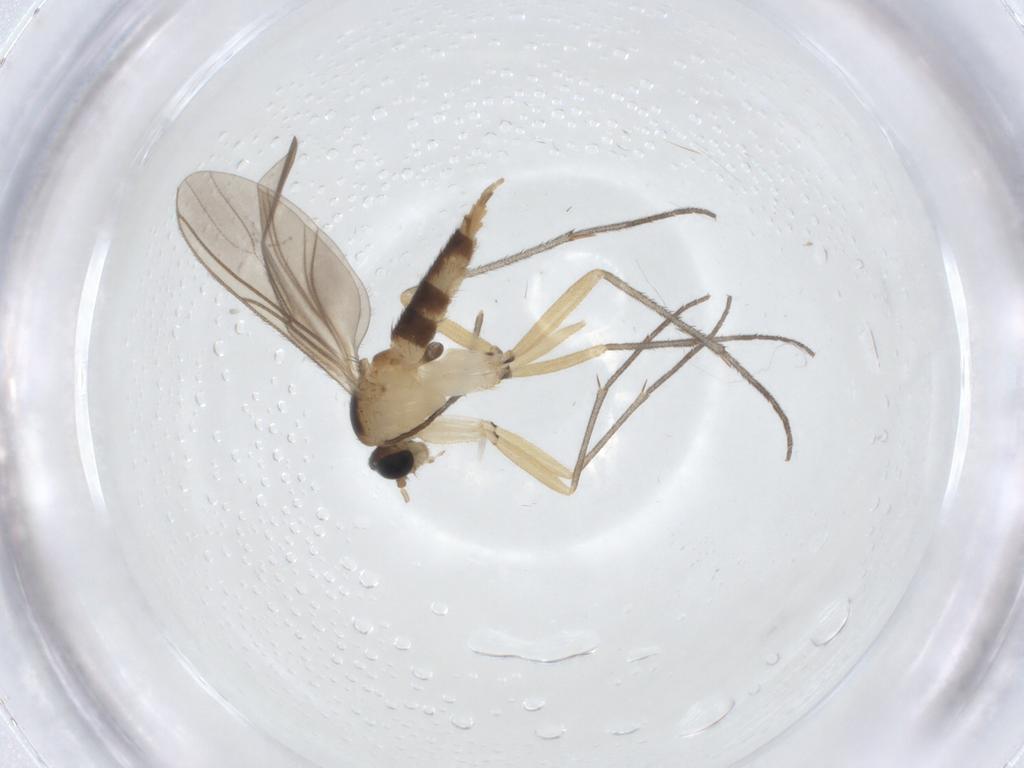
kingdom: Animalia
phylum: Arthropoda
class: Insecta
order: Diptera
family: Sciaridae
